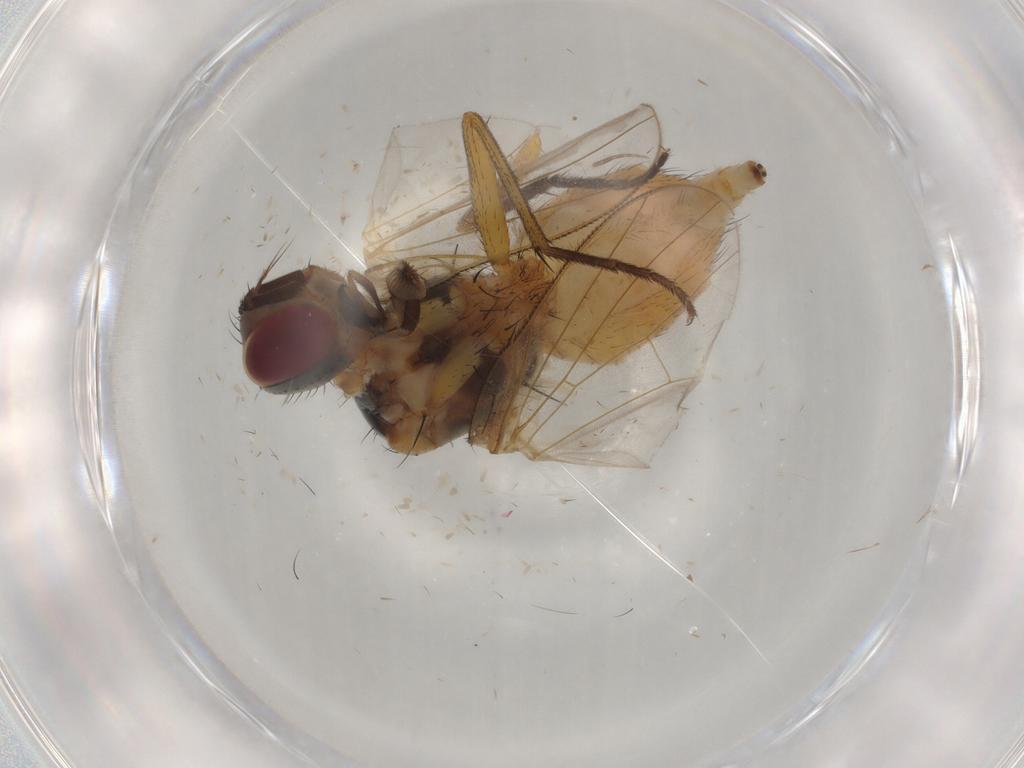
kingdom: Animalia
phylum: Arthropoda
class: Insecta
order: Diptera
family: Muscidae
